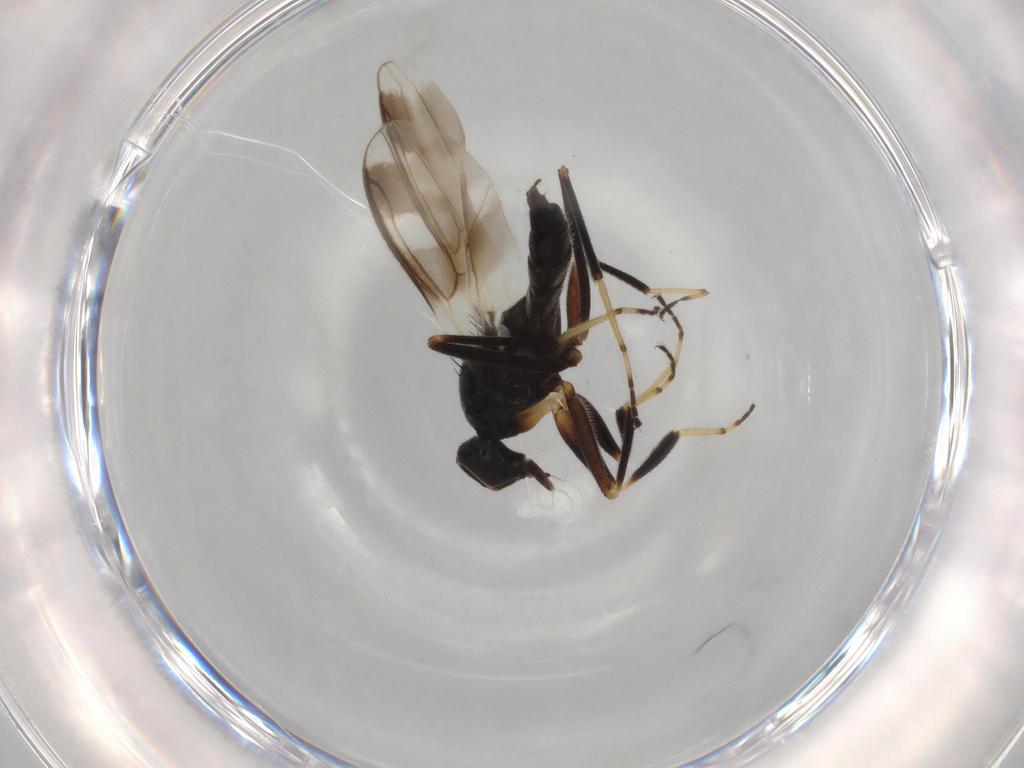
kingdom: Animalia
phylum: Arthropoda
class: Insecta
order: Diptera
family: Hybotidae
